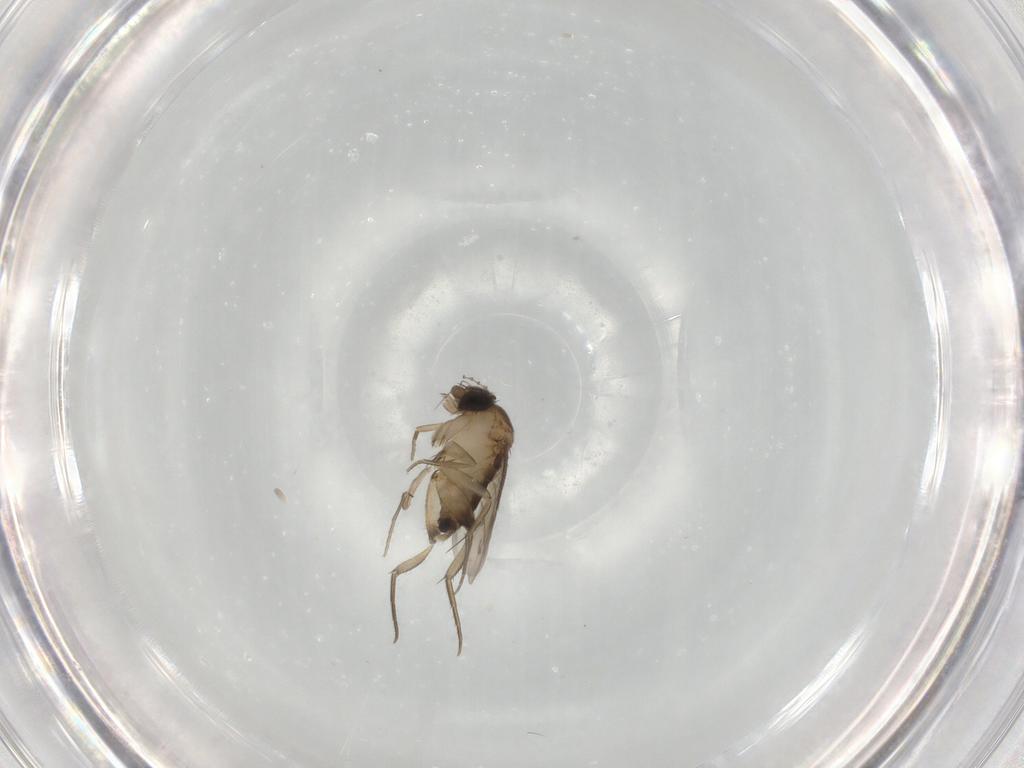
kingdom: Animalia
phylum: Arthropoda
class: Insecta
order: Diptera
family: Phoridae
